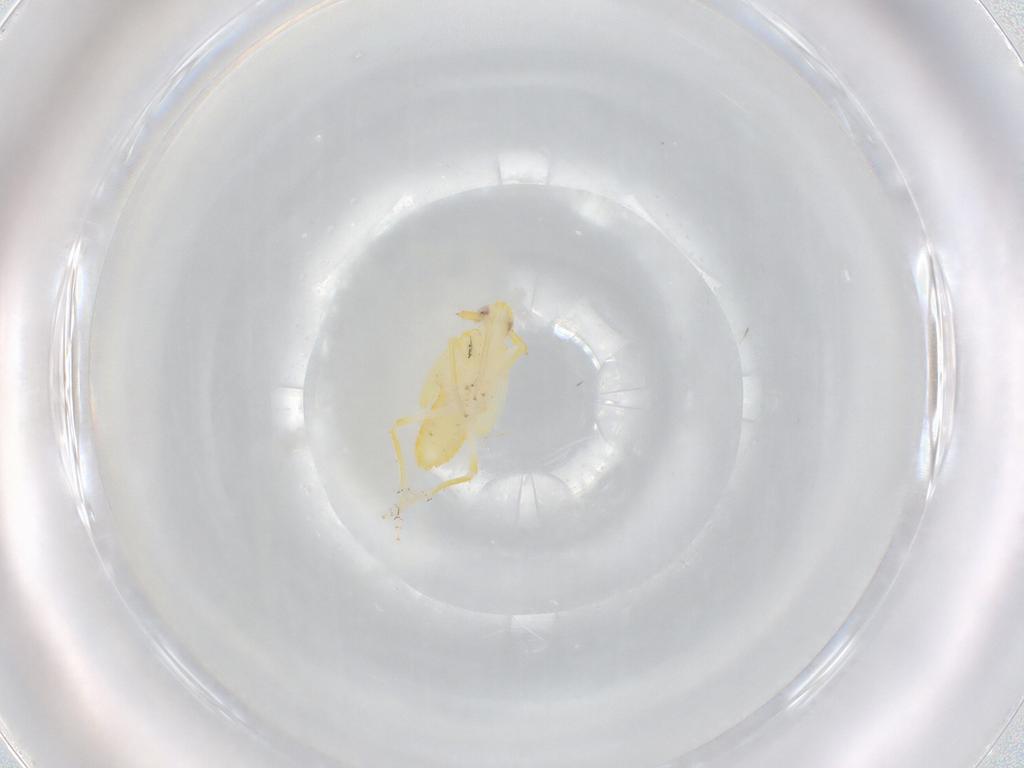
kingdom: Animalia
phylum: Arthropoda
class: Insecta
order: Hemiptera
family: Delphacidae
